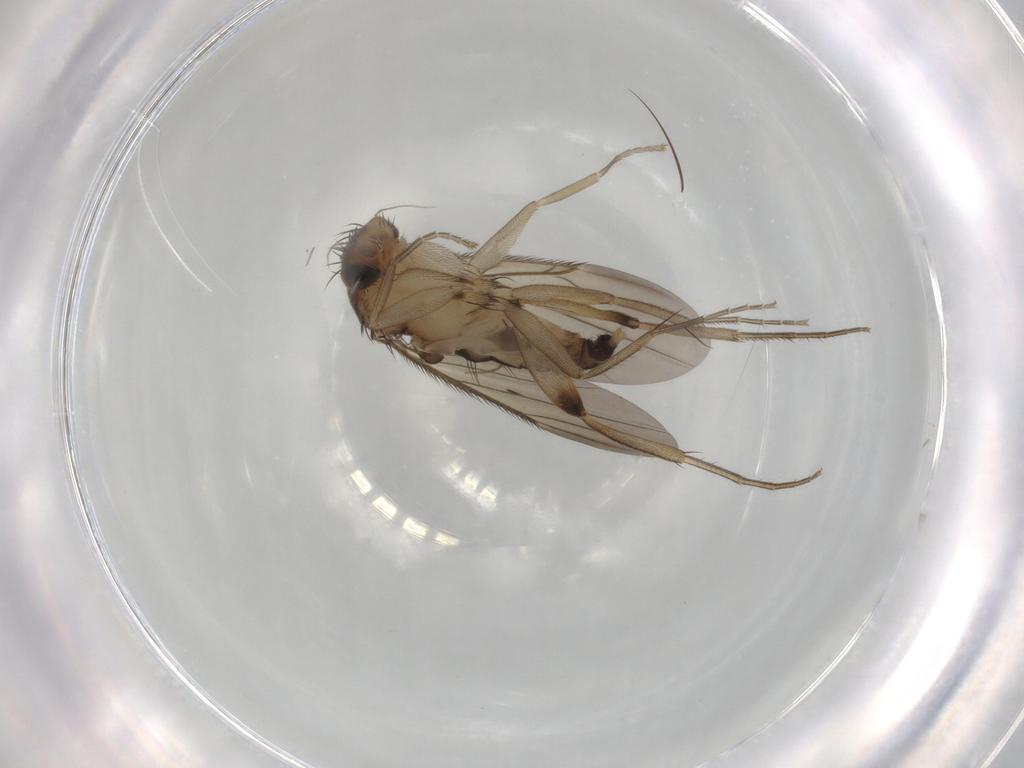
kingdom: Animalia
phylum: Arthropoda
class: Insecta
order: Diptera
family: Phoridae
